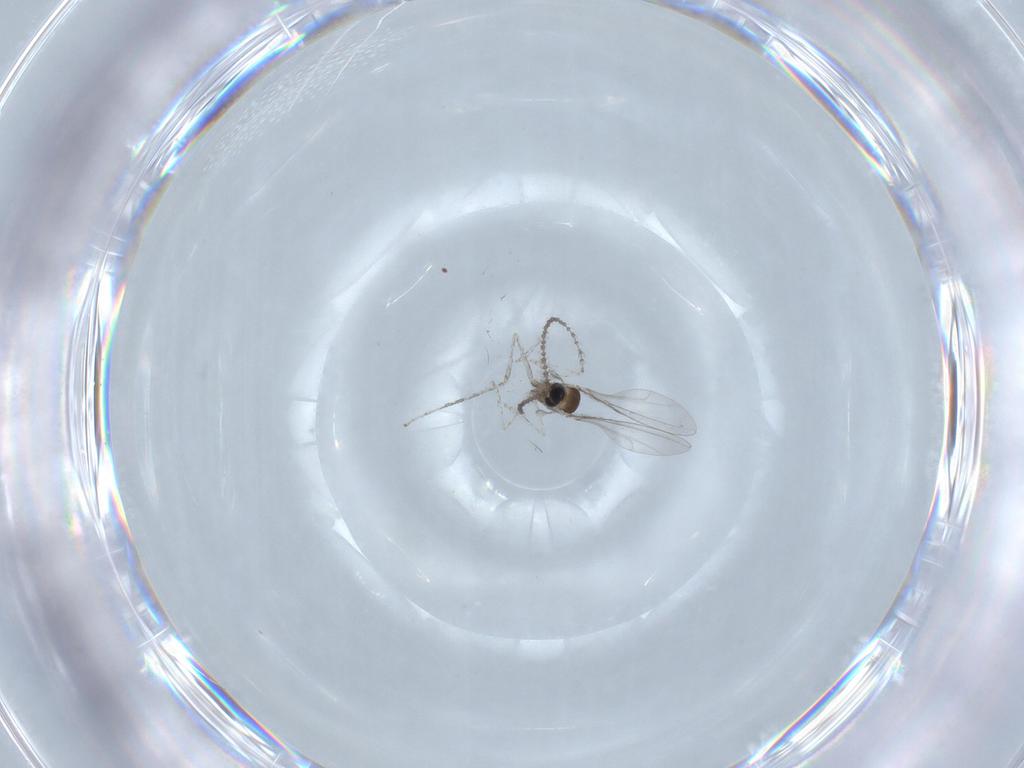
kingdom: Animalia
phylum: Arthropoda
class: Insecta
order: Diptera
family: Cecidomyiidae
